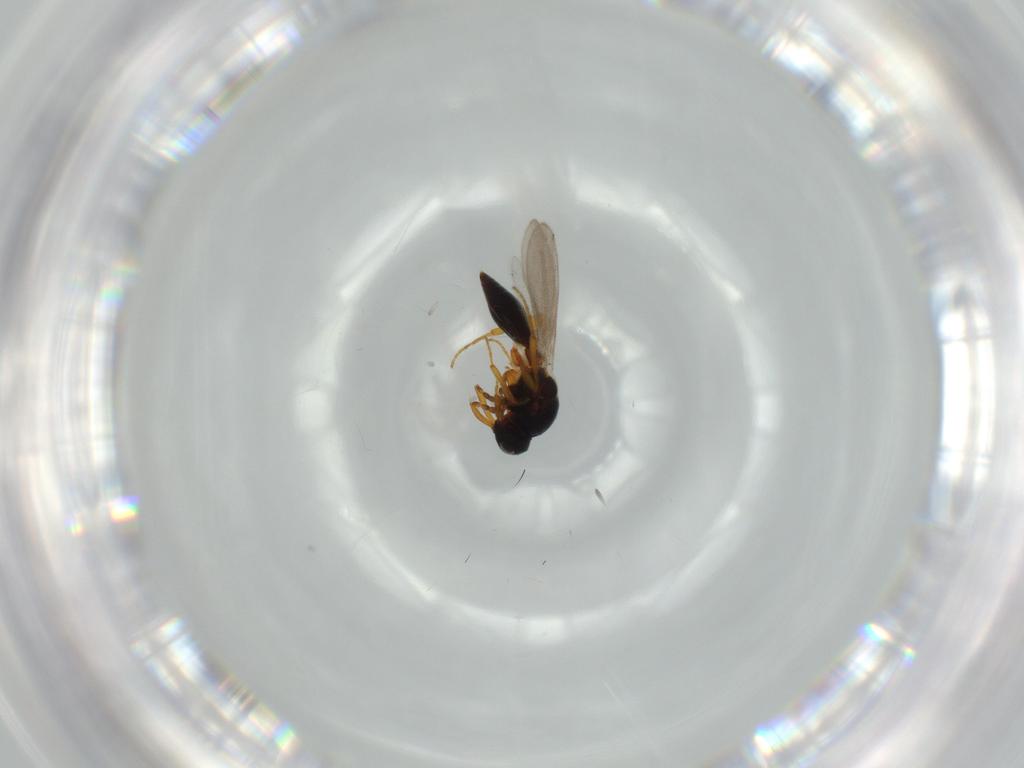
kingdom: Animalia
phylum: Arthropoda
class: Insecta
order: Hymenoptera
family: Platygastridae
